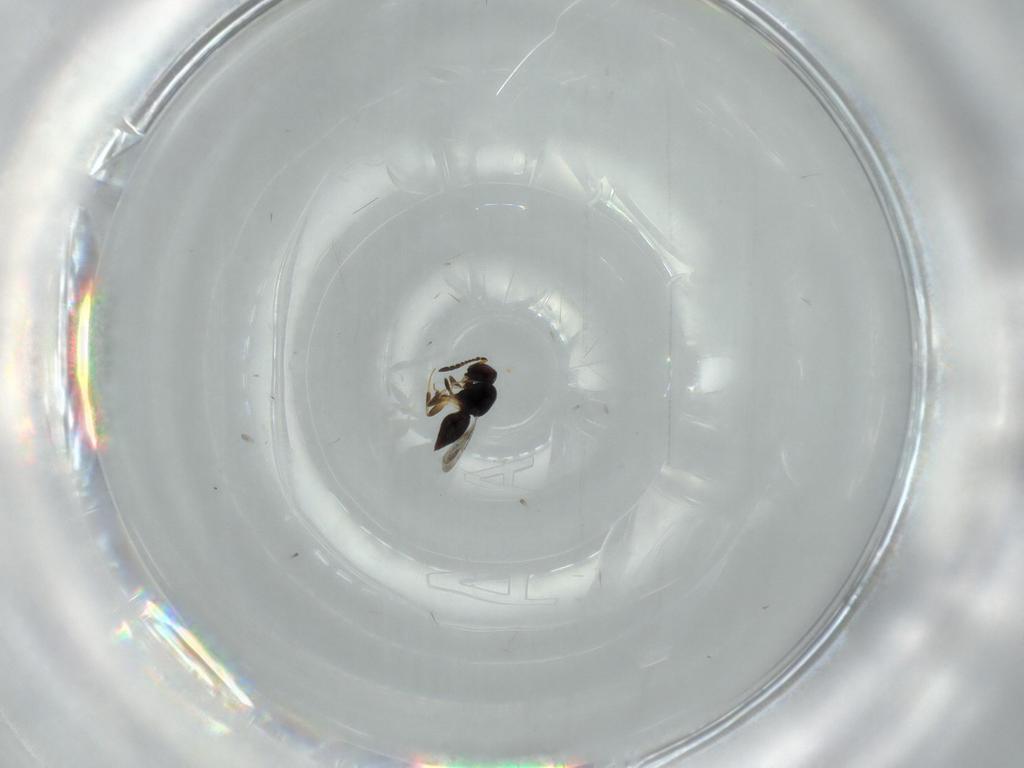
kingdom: Animalia
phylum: Arthropoda
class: Insecta
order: Hymenoptera
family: Ceraphronidae
